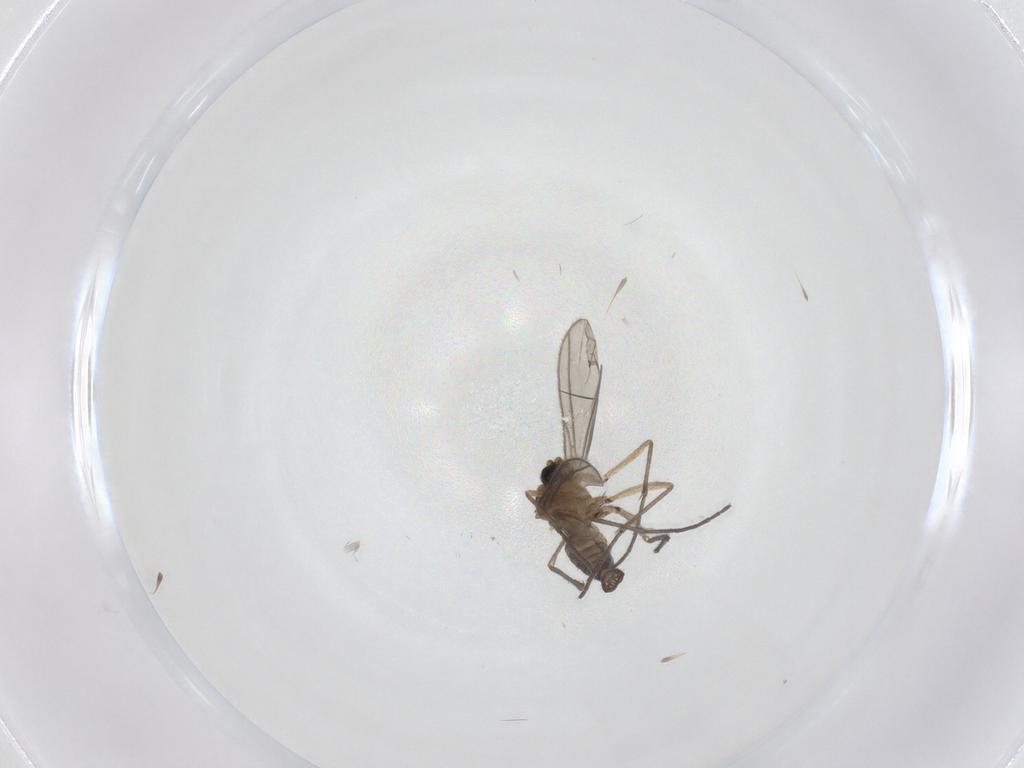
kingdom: Animalia
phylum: Arthropoda
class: Insecta
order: Diptera
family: Sciaridae
